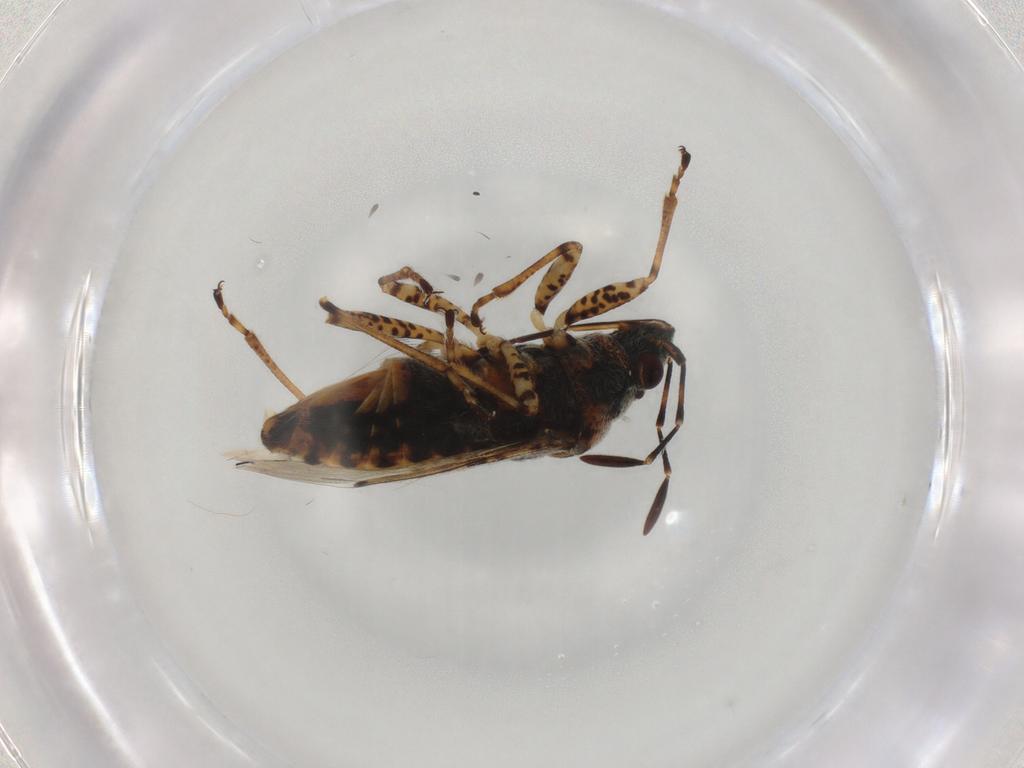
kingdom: Animalia
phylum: Arthropoda
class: Insecta
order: Hemiptera
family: Lygaeidae
